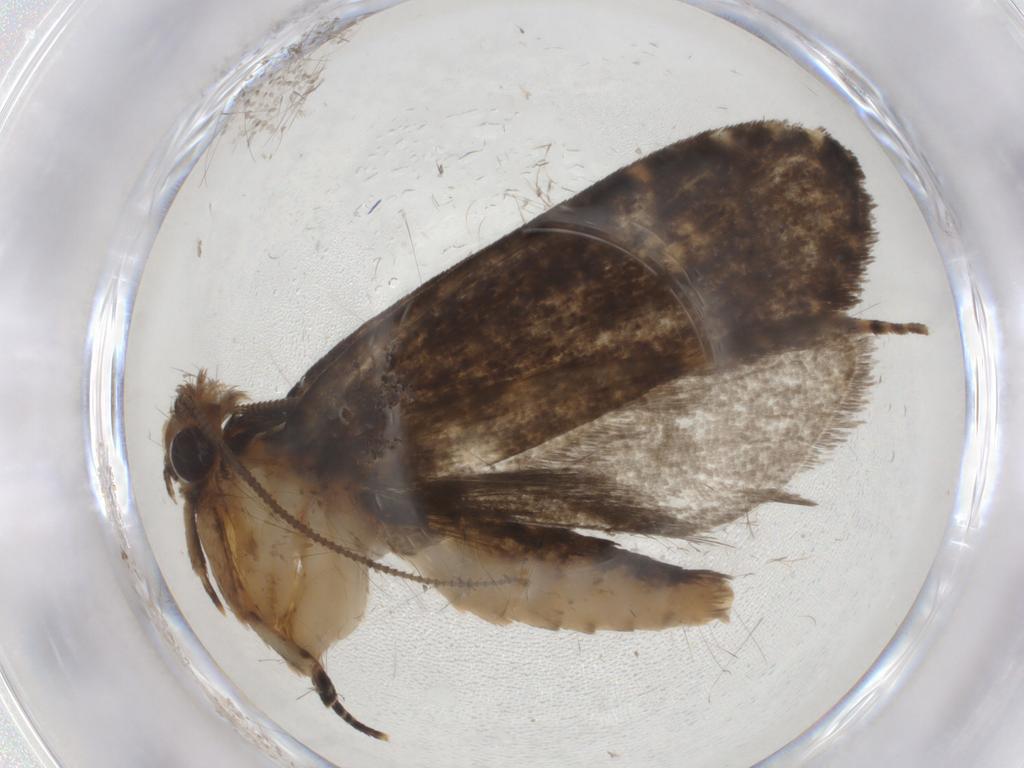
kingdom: Animalia
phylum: Arthropoda
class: Insecta
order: Lepidoptera
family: Tineidae
